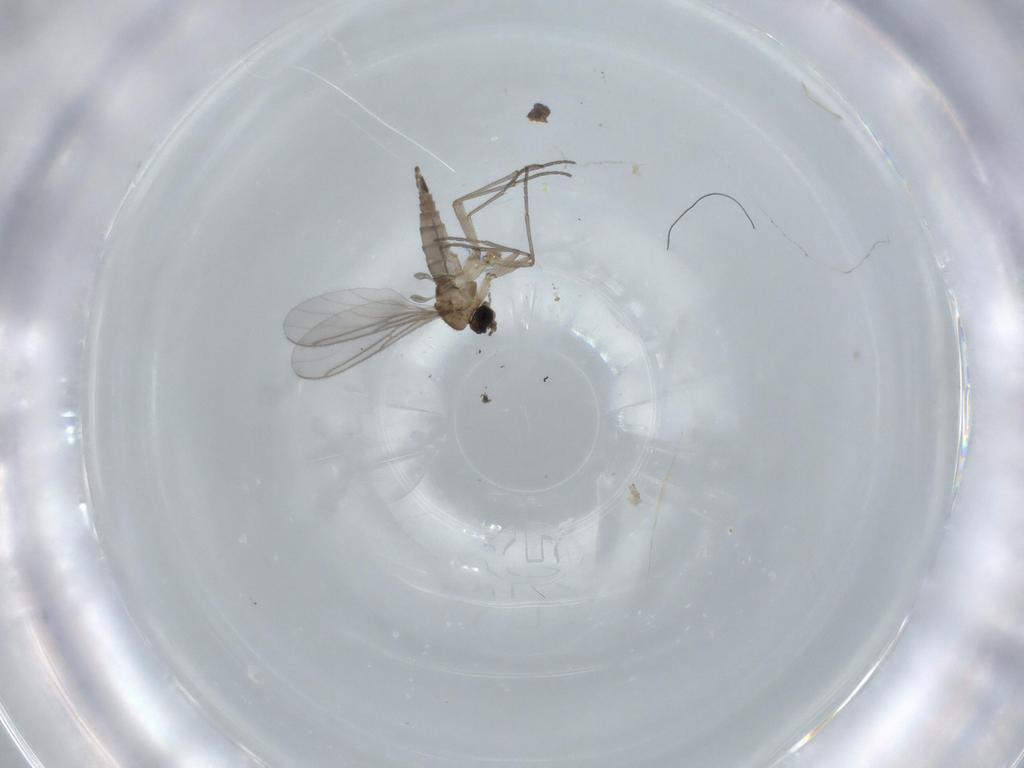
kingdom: Animalia
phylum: Arthropoda
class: Insecta
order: Diptera
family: Sciaridae
